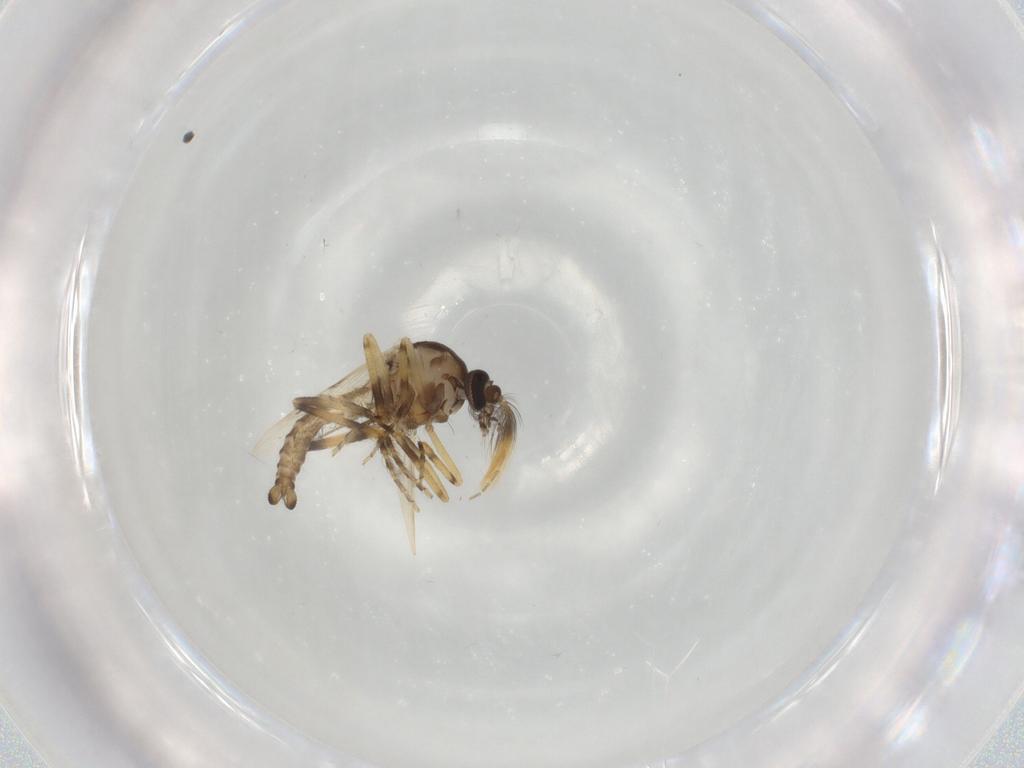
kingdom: Animalia
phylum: Arthropoda
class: Insecta
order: Diptera
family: Ceratopogonidae
